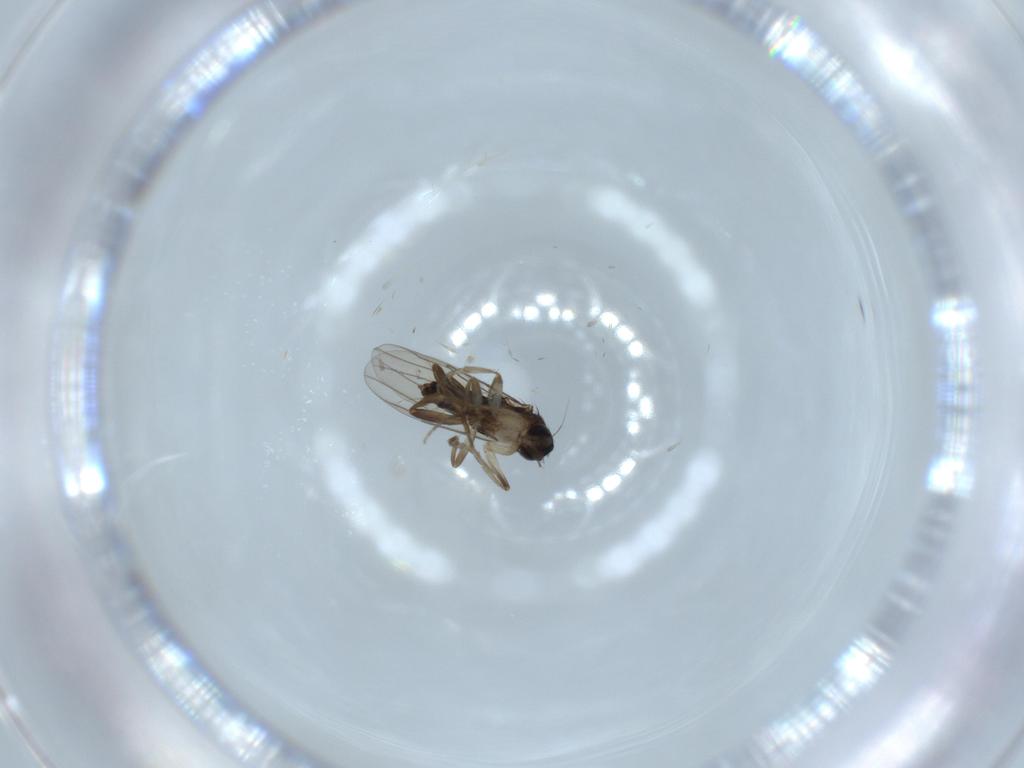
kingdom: Animalia
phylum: Arthropoda
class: Insecta
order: Diptera
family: Phoridae
